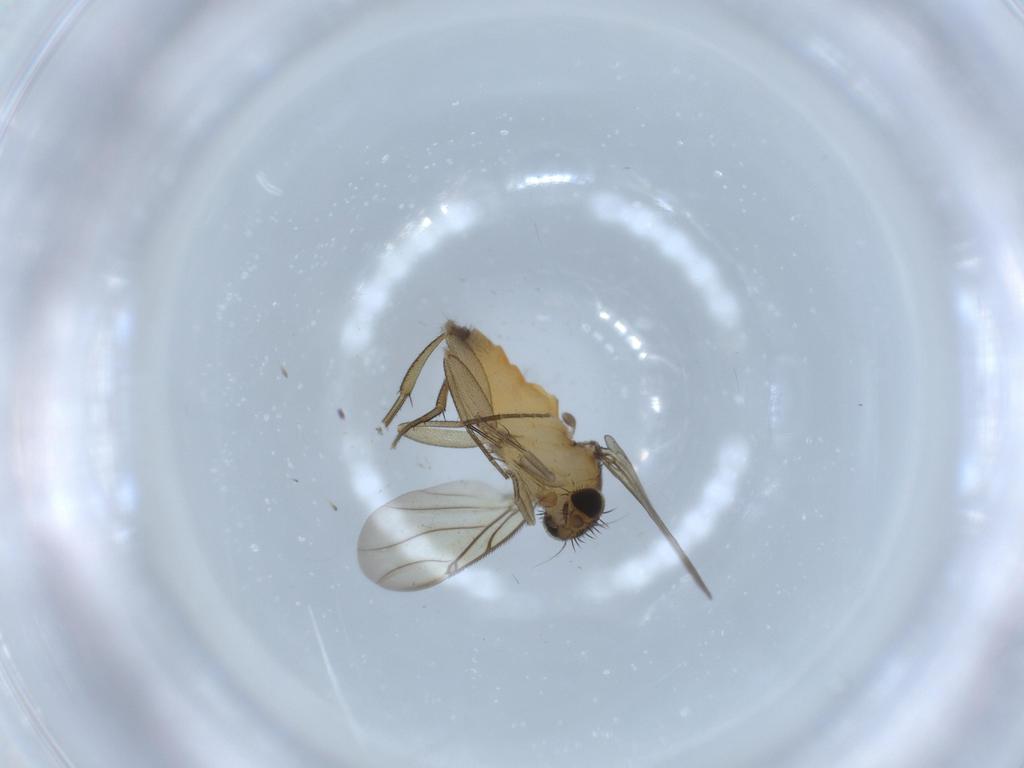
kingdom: Animalia
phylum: Arthropoda
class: Insecta
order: Diptera
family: Phoridae
